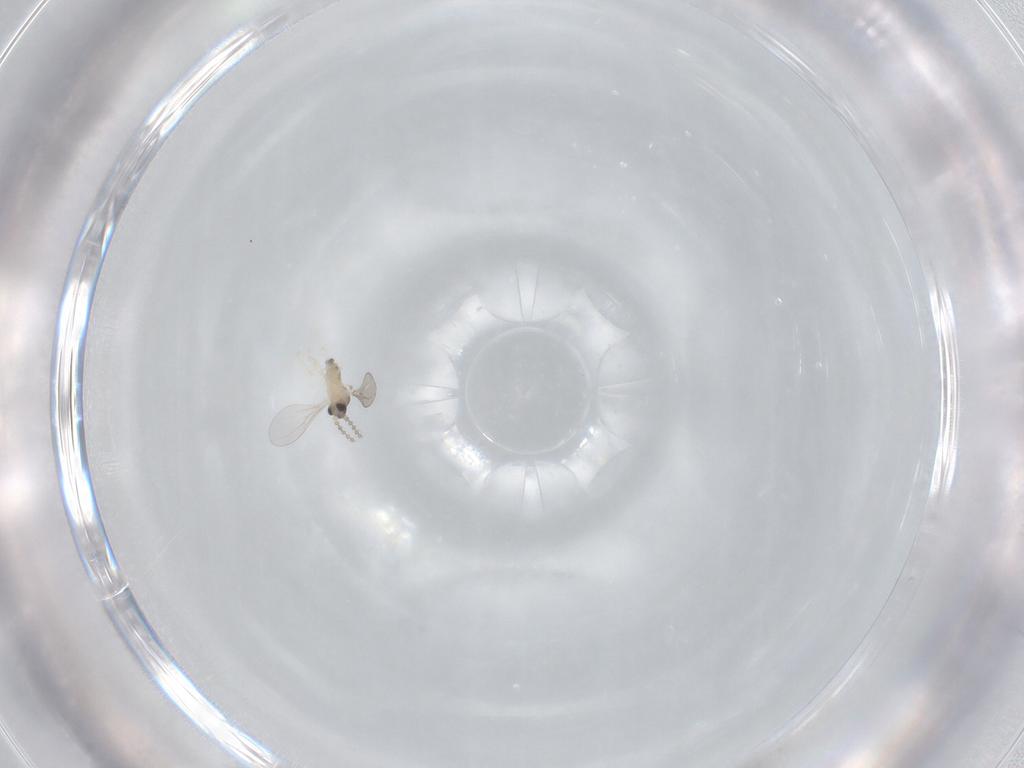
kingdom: Animalia
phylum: Arthropoda
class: Insecta
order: Diptera
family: Cecidomyiidae
